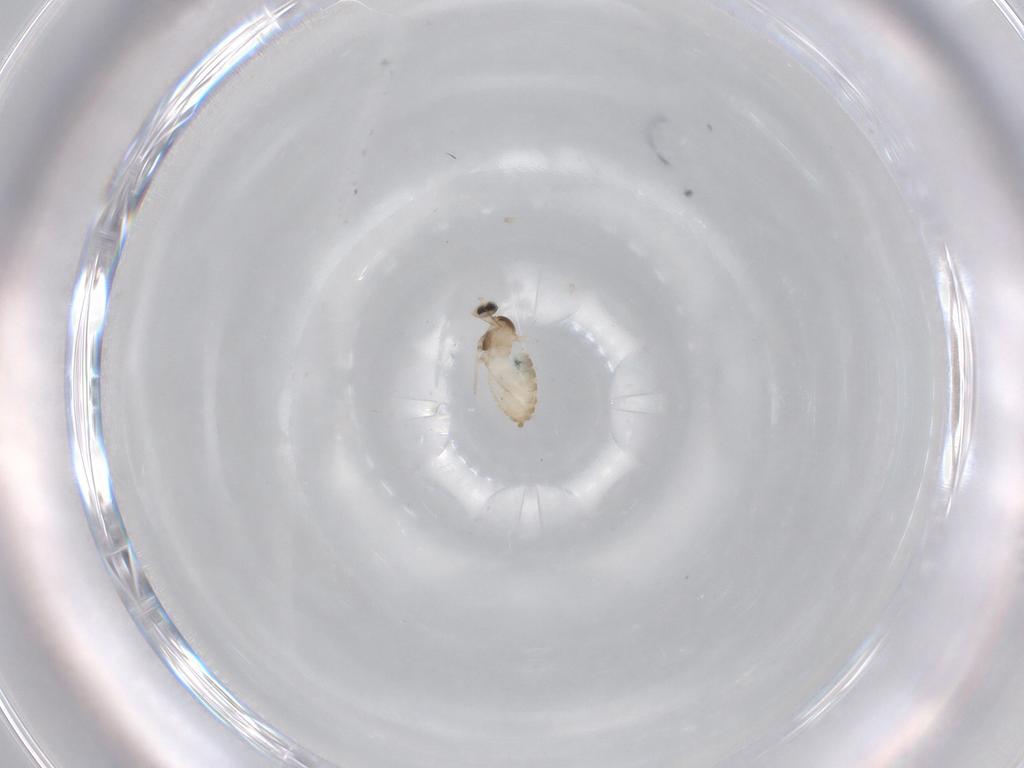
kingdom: Animalia
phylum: Arthropoda
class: Insecta
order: Diptera
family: Cecidomyiidae
